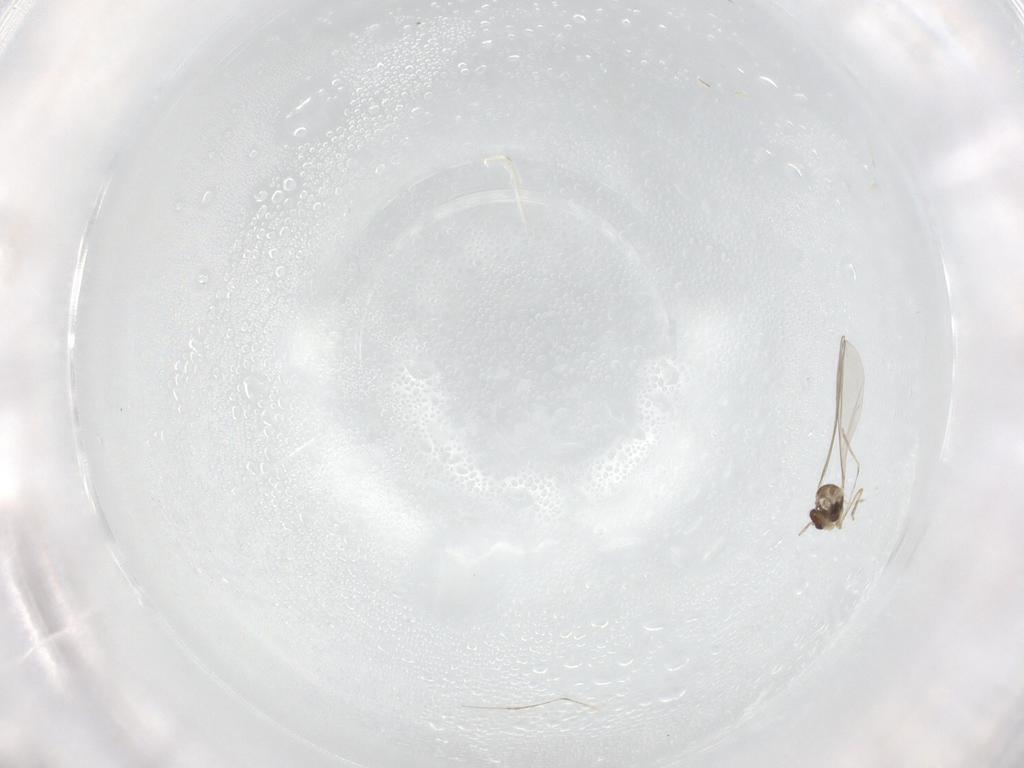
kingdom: Animalia
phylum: Arthropoda
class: Insecta
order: Diptera
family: Cecidomyiidae
